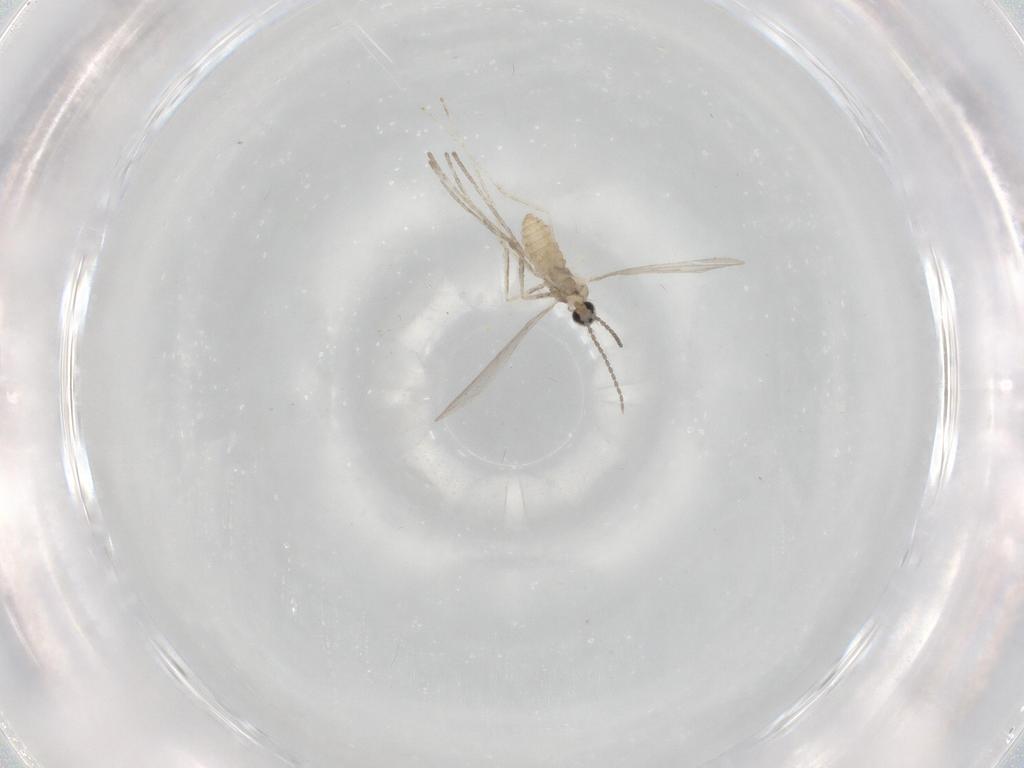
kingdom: Animalia
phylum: Arthropoda
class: Insecta
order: Diptera
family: Cecidomyiidae
